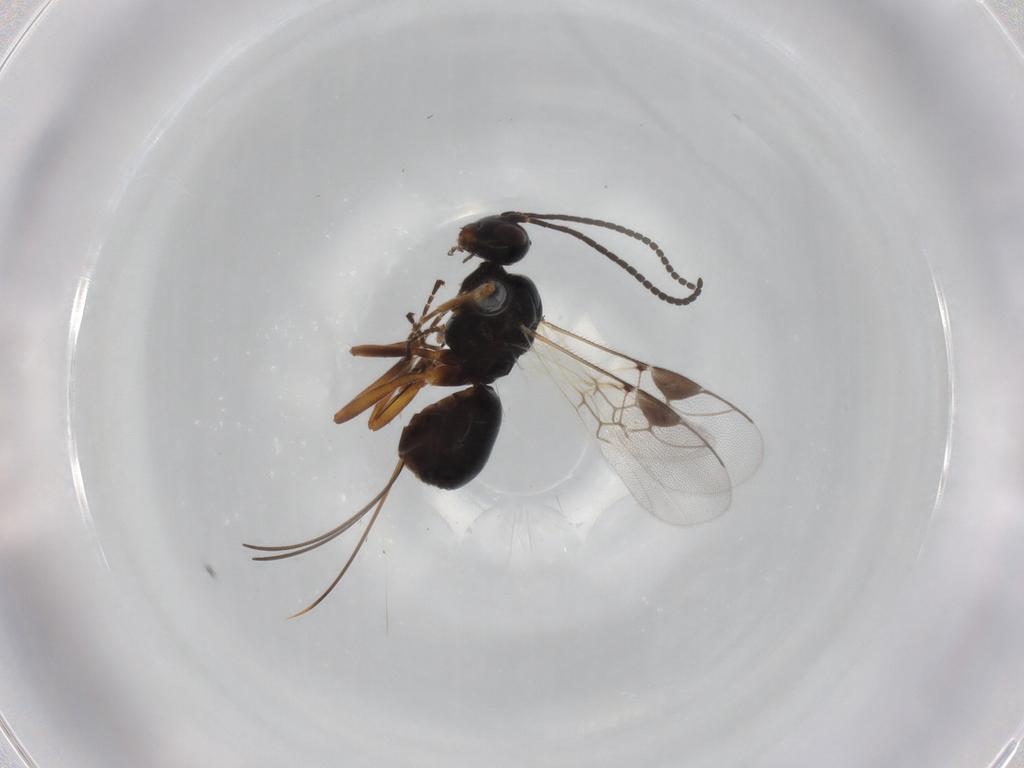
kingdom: Animalia
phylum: Arthropoda
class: Insecta
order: Hymenoptera
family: Braconidae
